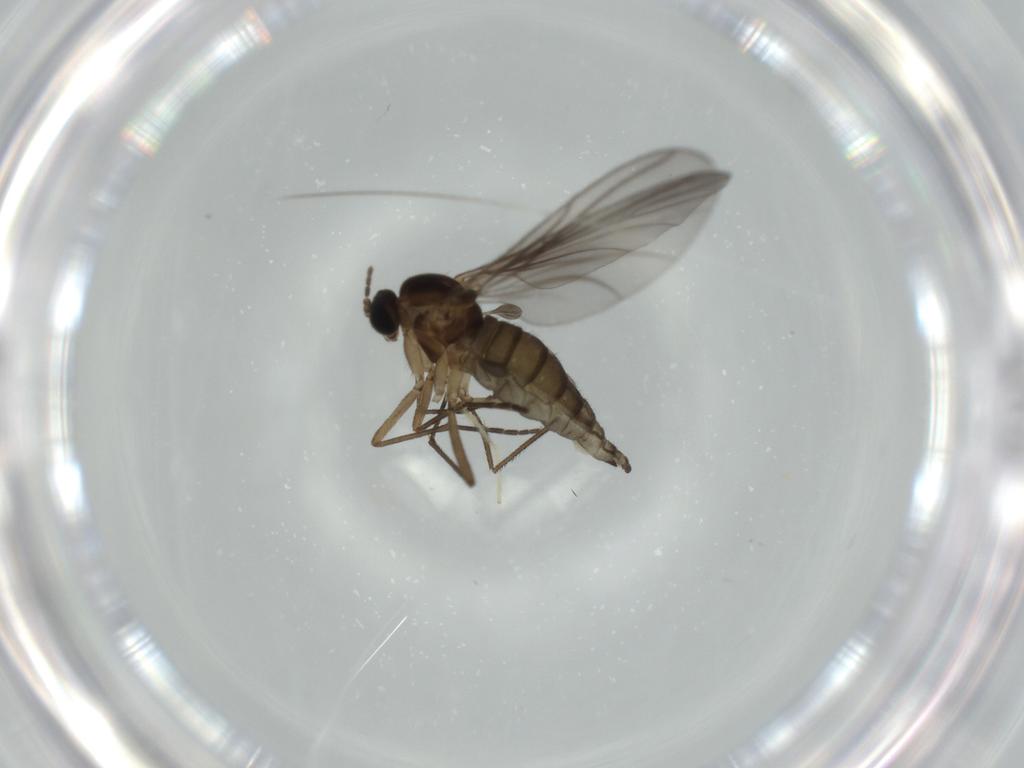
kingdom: Animalia
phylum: Arthropoda
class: Insecta
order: Diptera
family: Sciaridae
